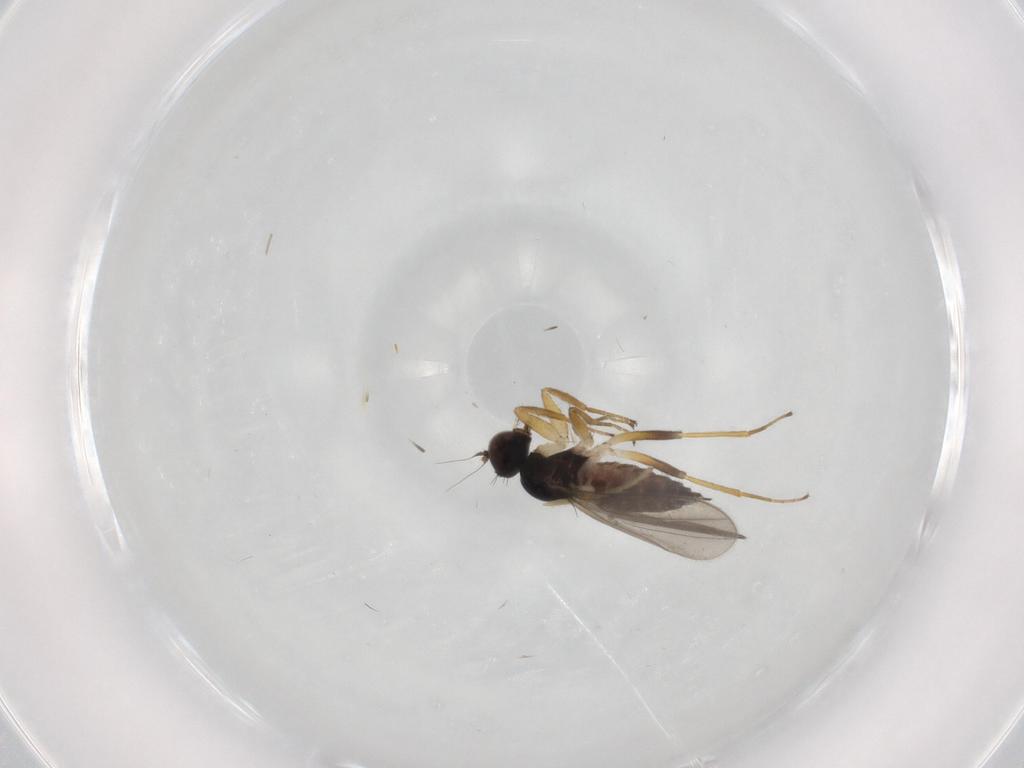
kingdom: Animalia
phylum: Arthropoda
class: Insecta
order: Diptera
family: Hybotidae
